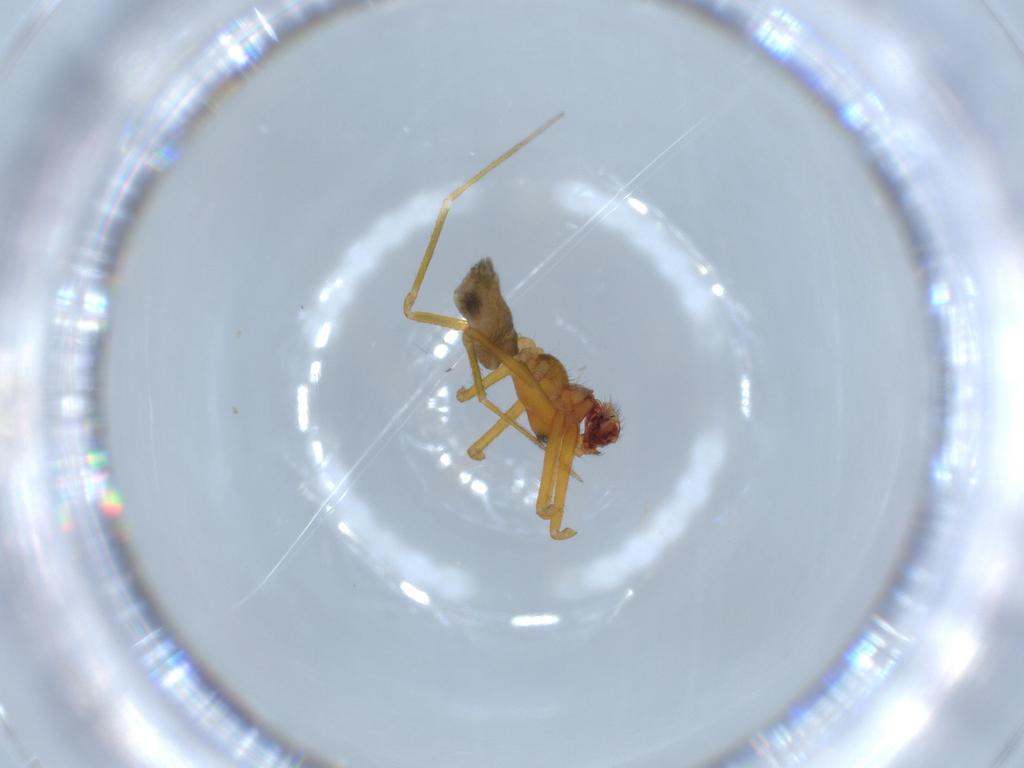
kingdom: Animalia
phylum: Arthropoda
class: Arachnida
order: Araneae
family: Linyphiidae
